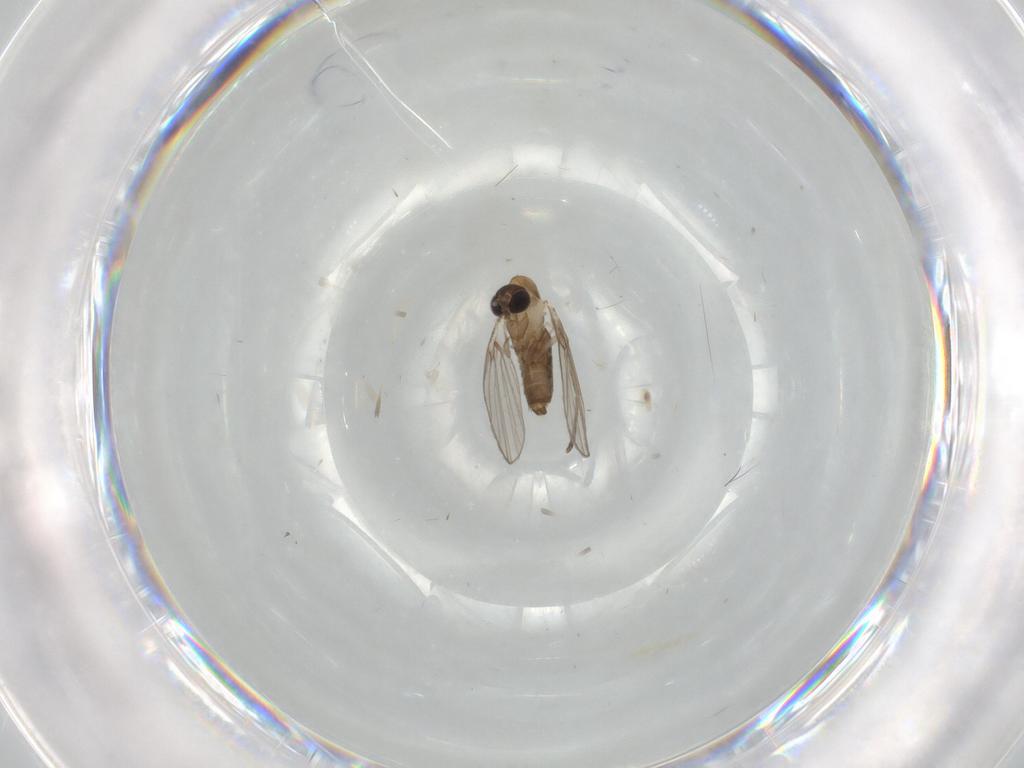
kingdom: Animalia
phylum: Arthropoda
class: Insecta
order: Diptera
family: Psychodidae
